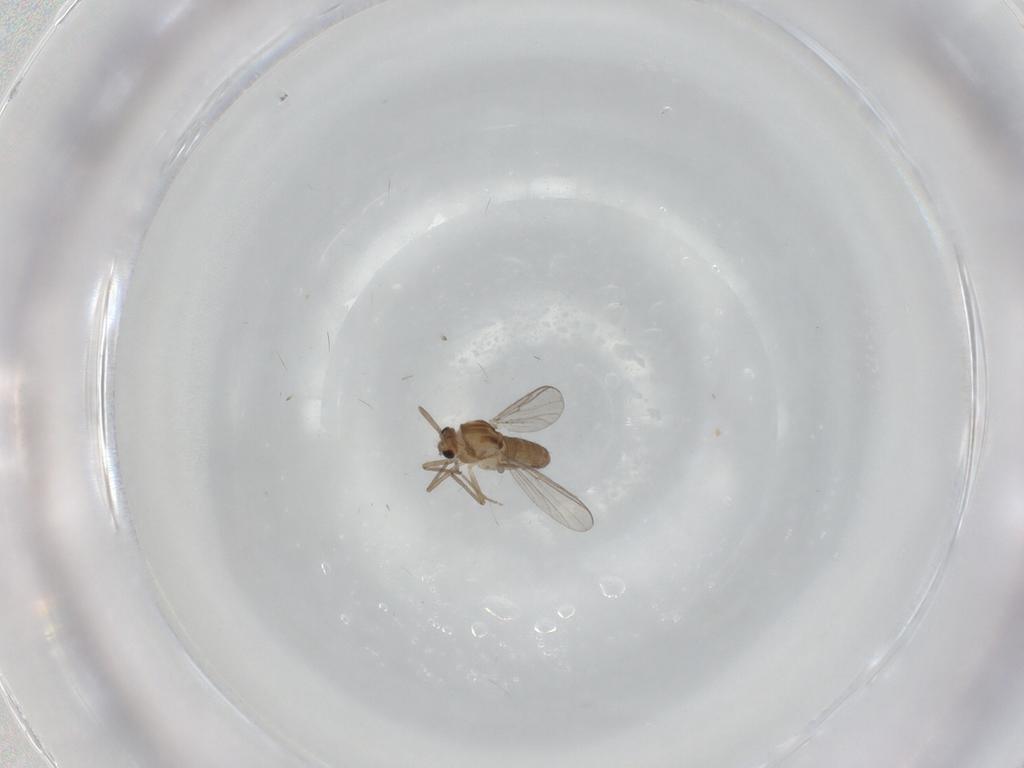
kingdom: Animalia
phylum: Arthropoda
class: Insecta
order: Diptera
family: Chironomidae
